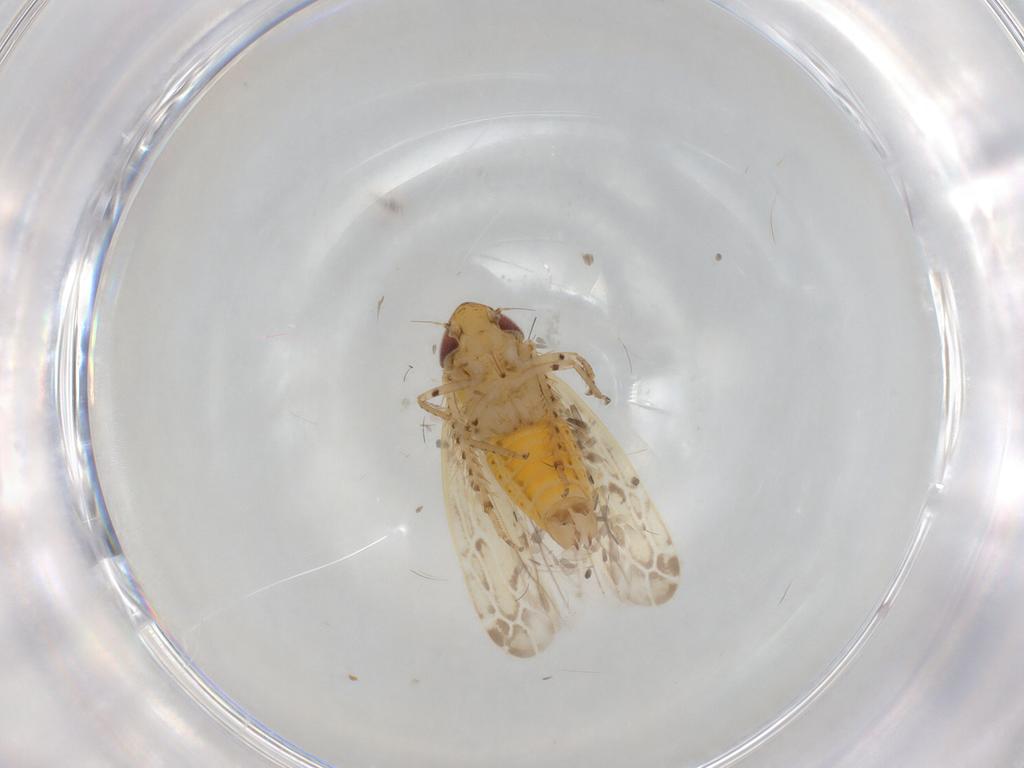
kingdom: Animalia
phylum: Arthropoda
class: Insecta
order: Hemiptera
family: Cicadellidae
